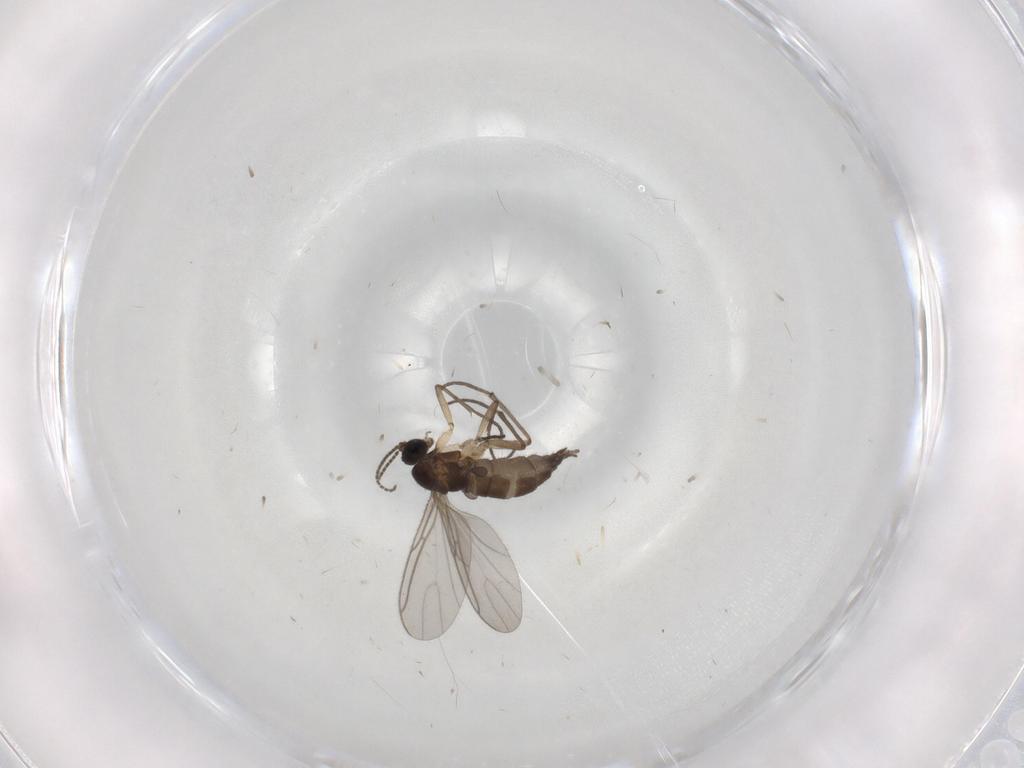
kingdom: Animalia
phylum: Arthropoda
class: Insecta
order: Diptera
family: Sciaridae
